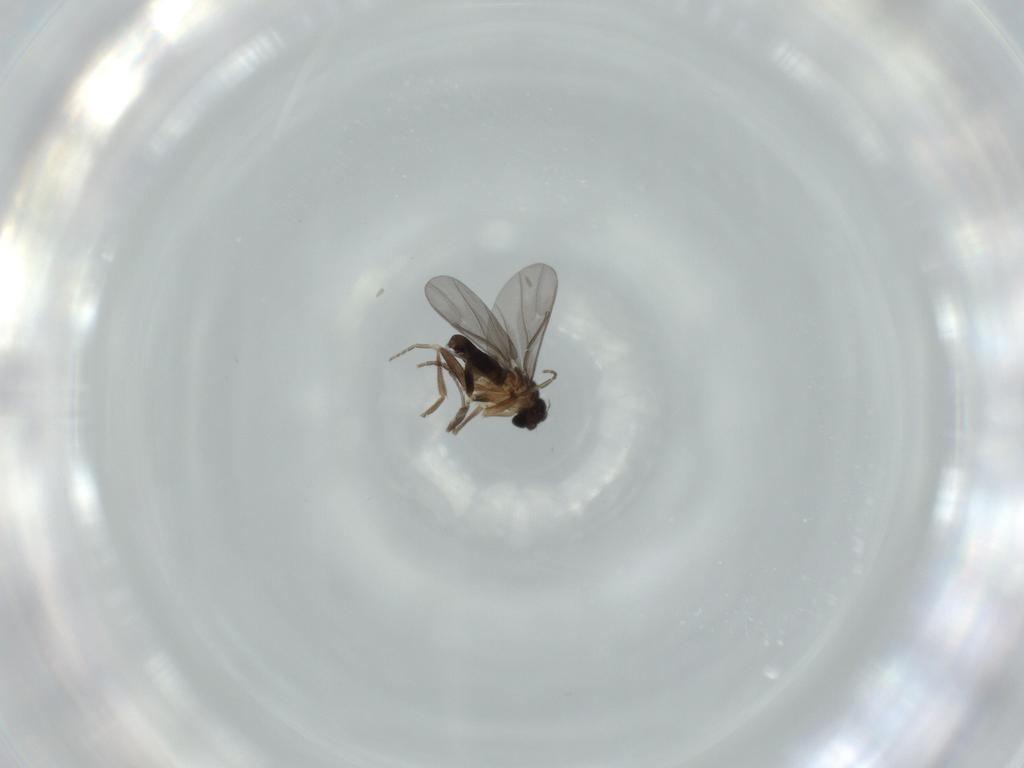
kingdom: Animalia
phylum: Arthropoda
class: Insecta
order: Diptera
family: Phoridae
